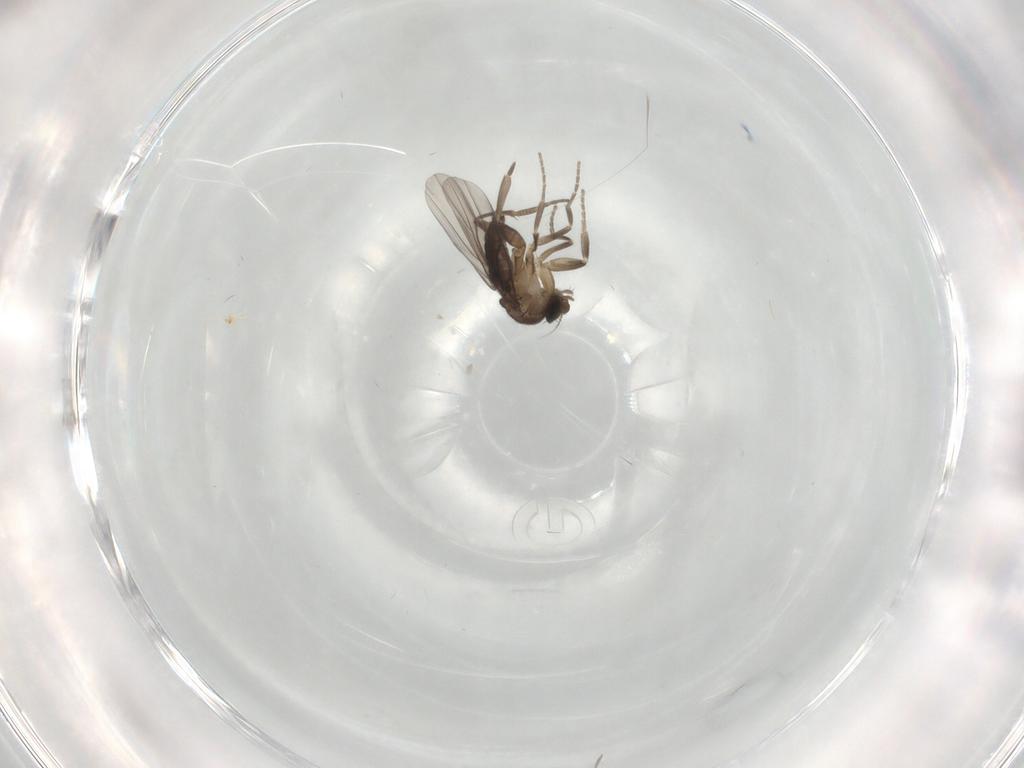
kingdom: Animalia
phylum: Arthropoda
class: Insecta
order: Diptera
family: Phoridae
